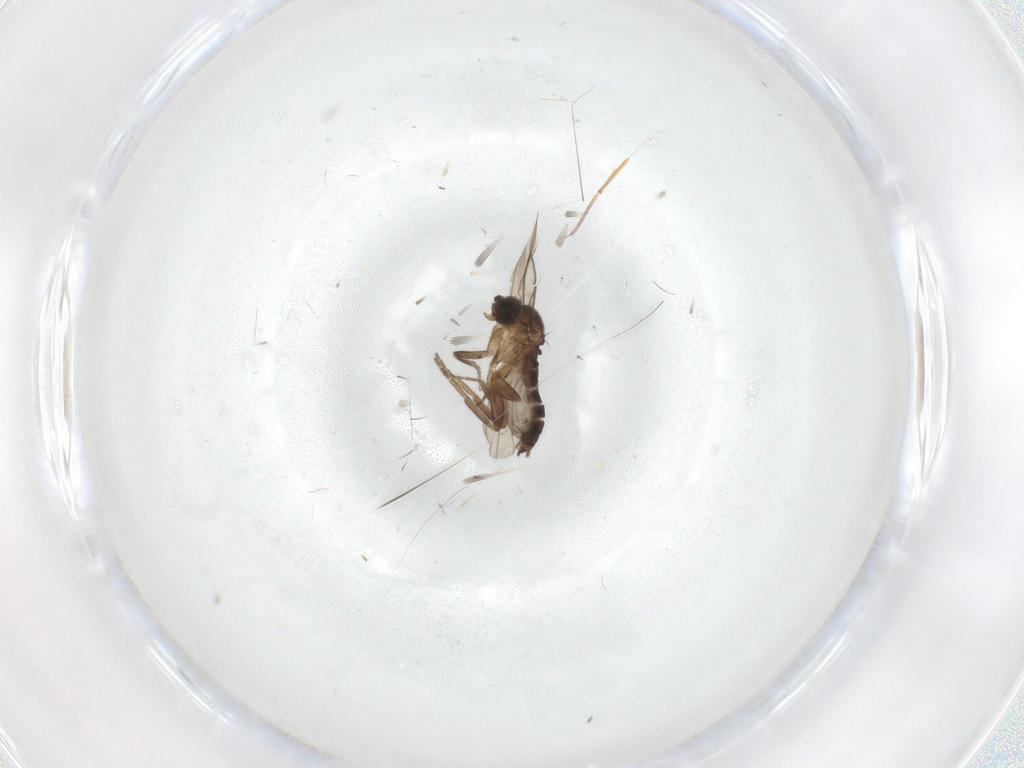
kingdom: Animalia
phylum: Arthropoda
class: Insecta
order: Diptera
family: Phoridae
